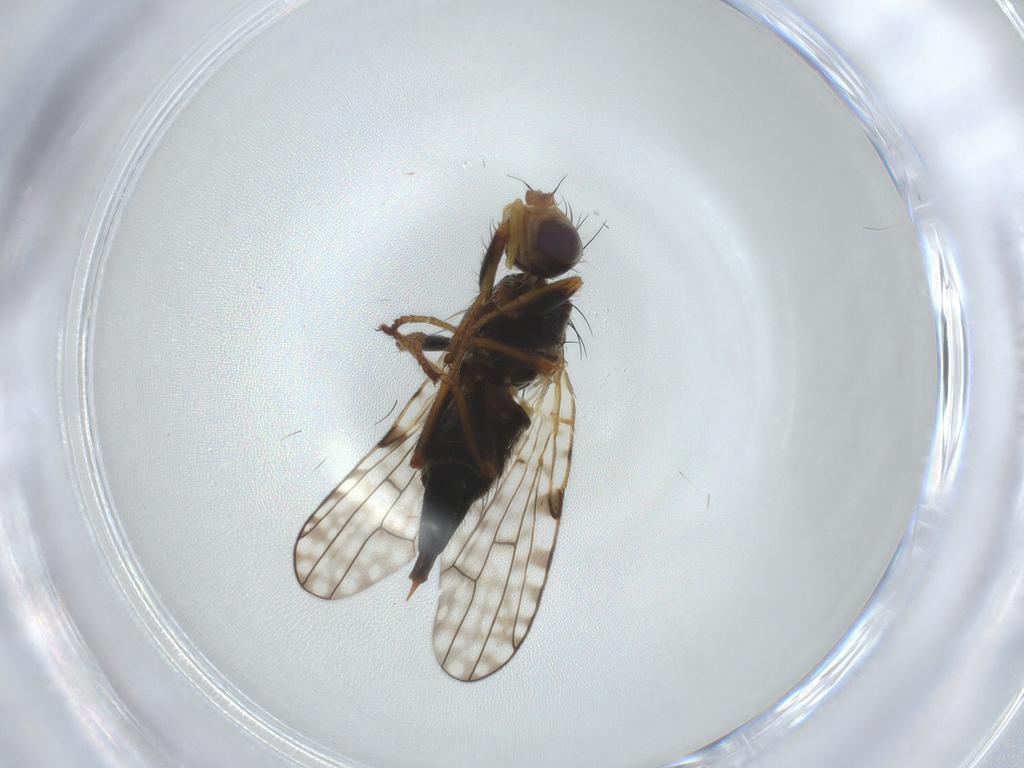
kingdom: Animalia
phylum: Arthropoda
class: Insecta
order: Diptera
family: Tephritidae
